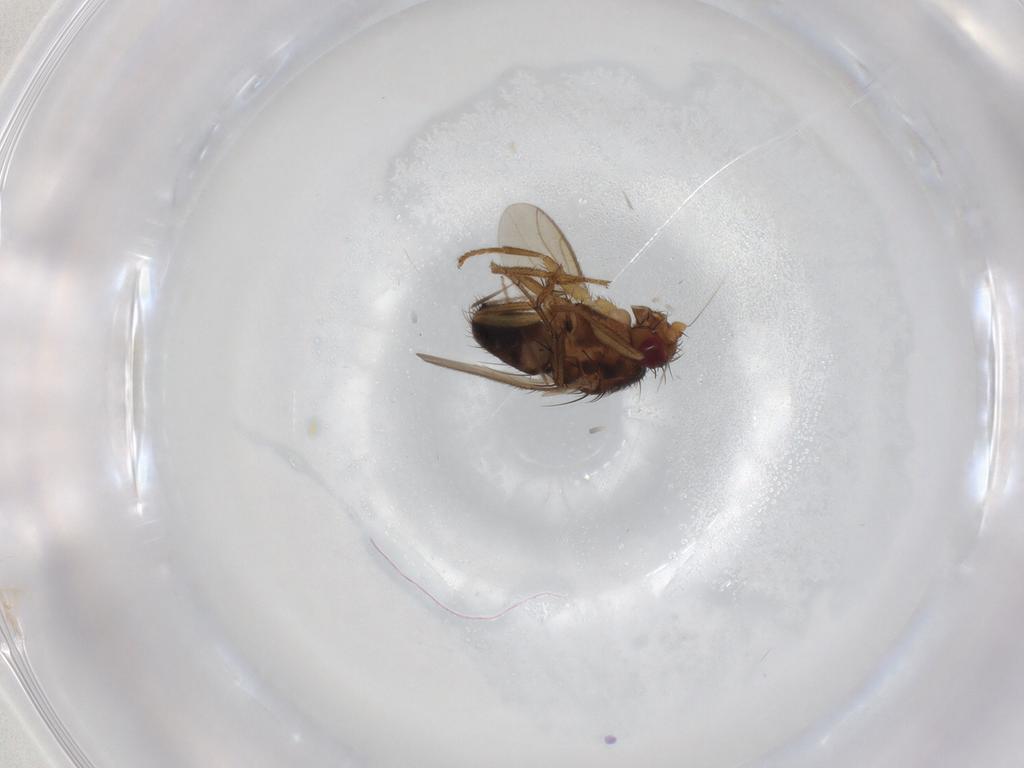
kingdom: Animalia
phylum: Arthropoda
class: Insecta
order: Diptera
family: Sphaeroceridae
